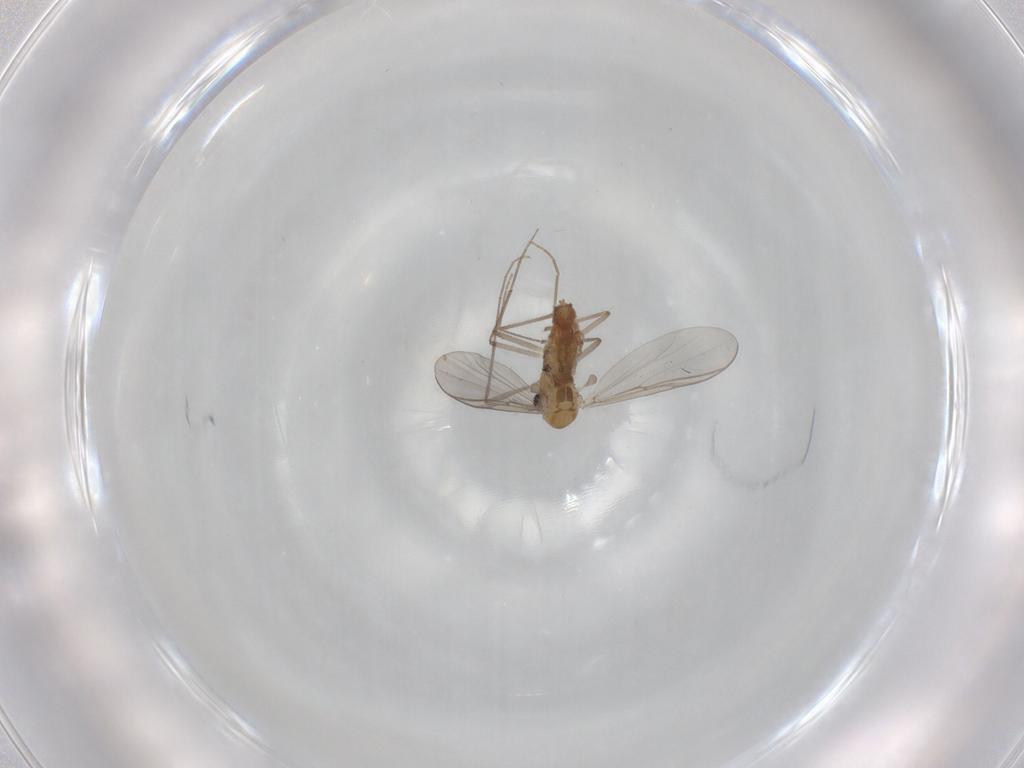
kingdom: Animalia
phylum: Arthropoda
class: Insecta
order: Diptera
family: Chironomidae
